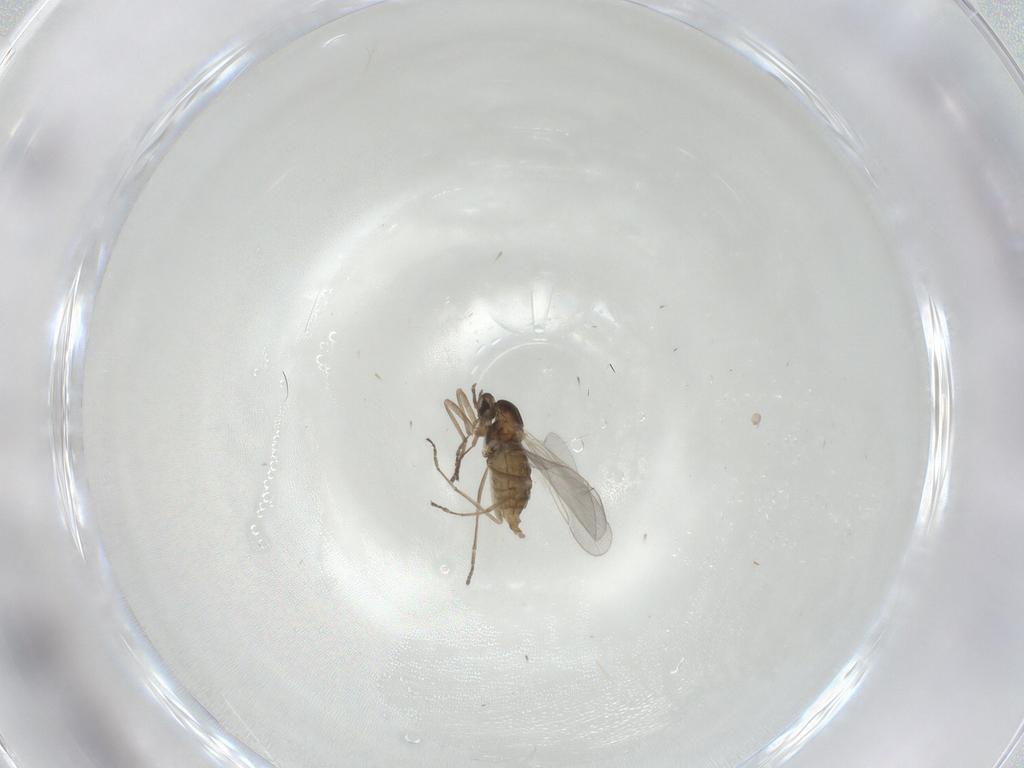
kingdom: Animalia
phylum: Arthropoda
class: Insecta
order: Diptera
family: Cecidomyiidae
